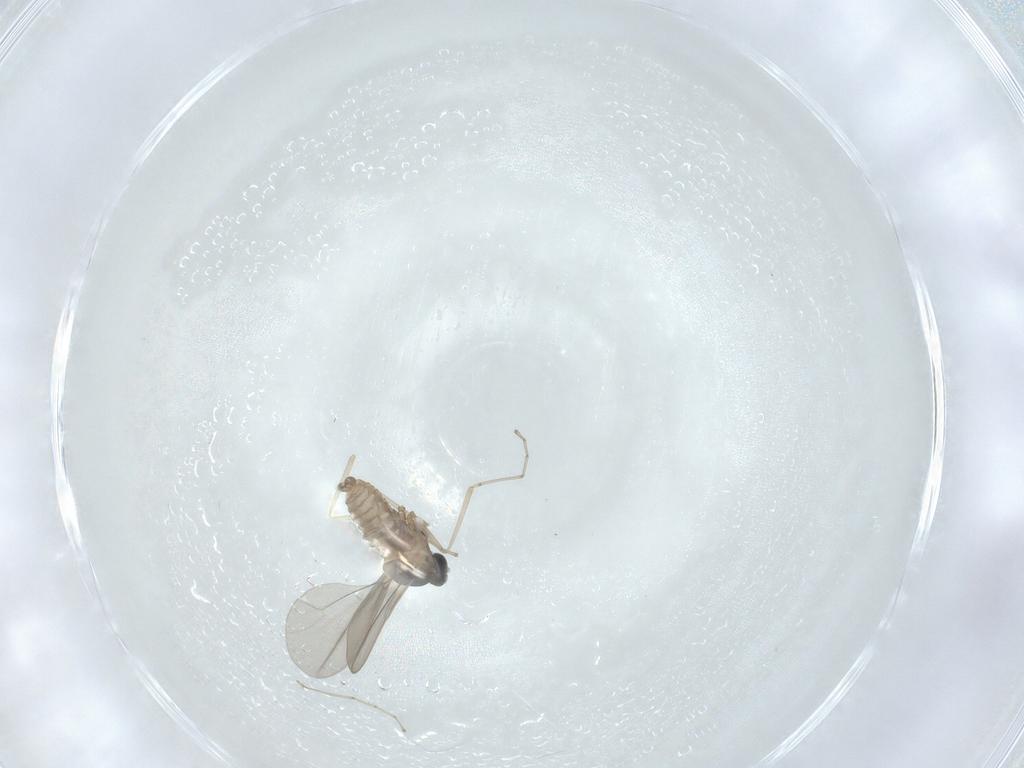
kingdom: Animalia
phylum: Arthropoda
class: Insecta
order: Diptera
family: Cecidomyiidae
